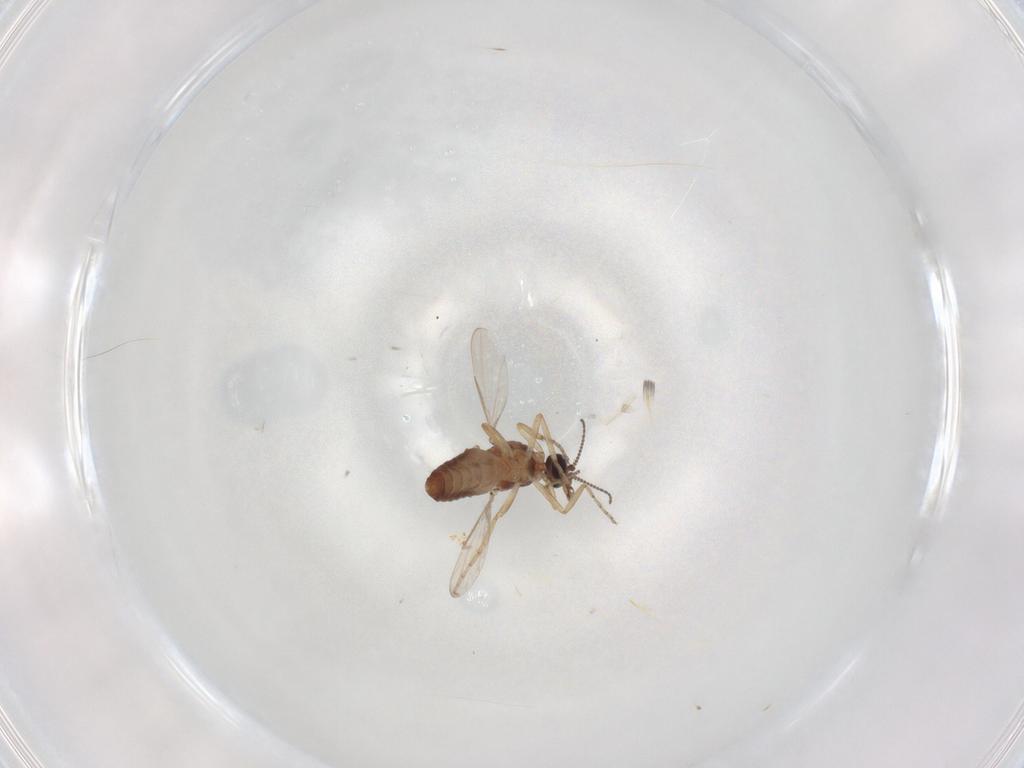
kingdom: Animalia
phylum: Arthropoda
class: Insecta
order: Diptera
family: Ceratopogonidae
